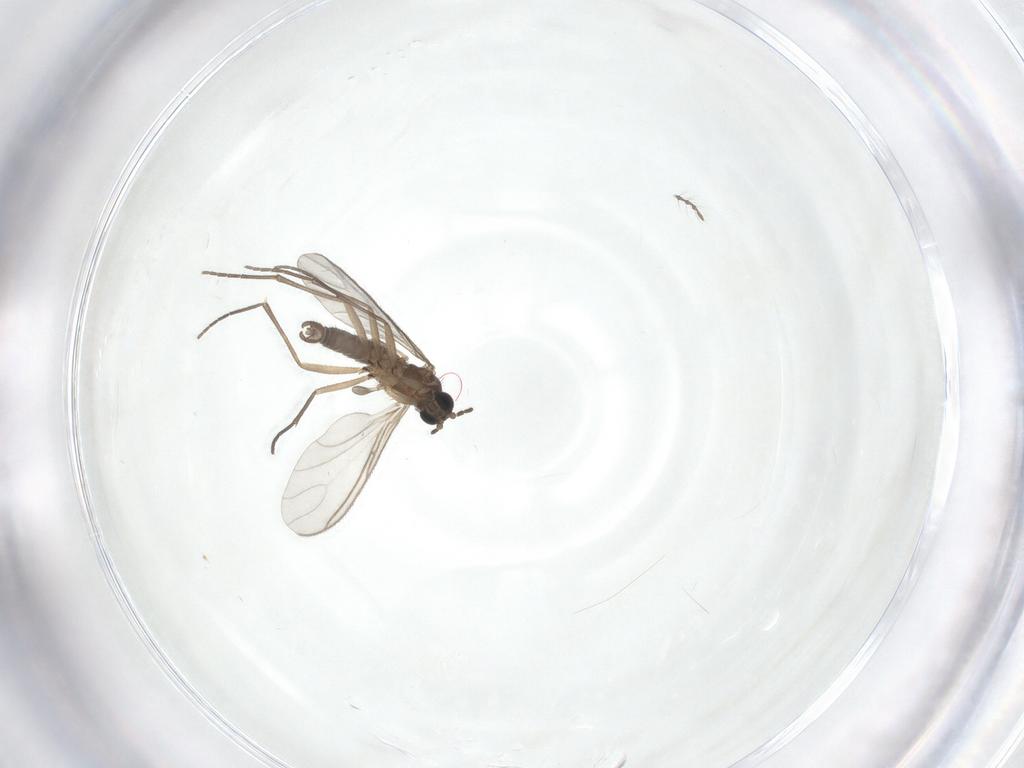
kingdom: Animalia
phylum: Arthropoda
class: Insecta
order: Diptera
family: Sciaridae
